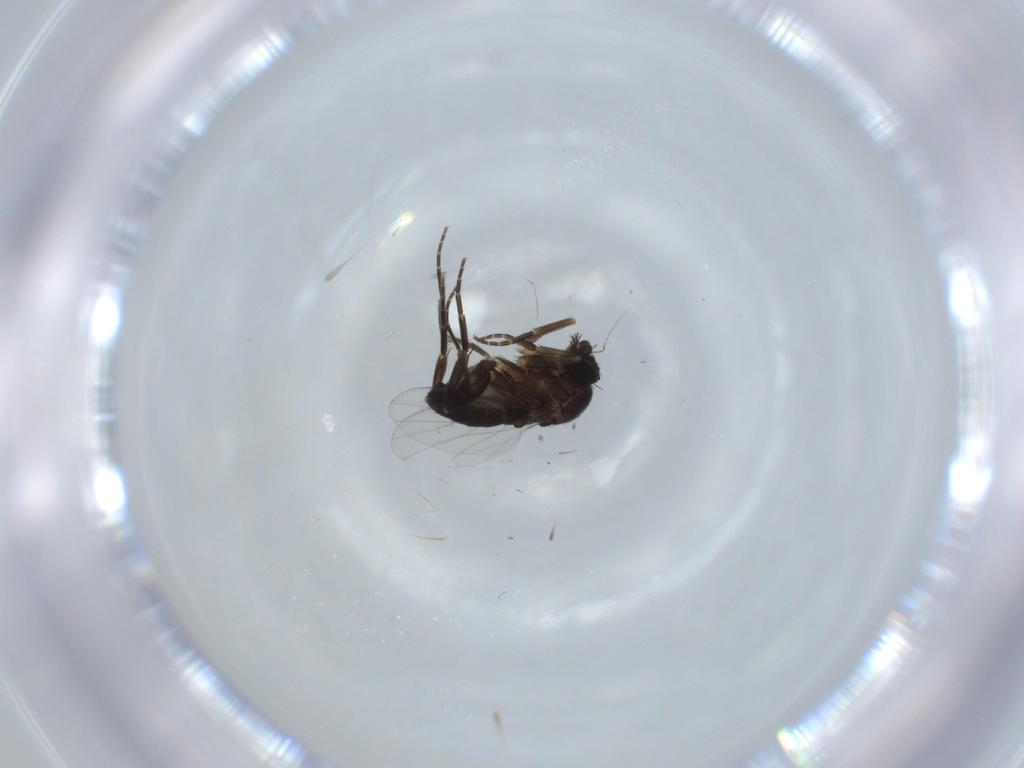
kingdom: Animalia
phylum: Arthropoda
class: Insecta
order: Diptera
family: Phoridae
